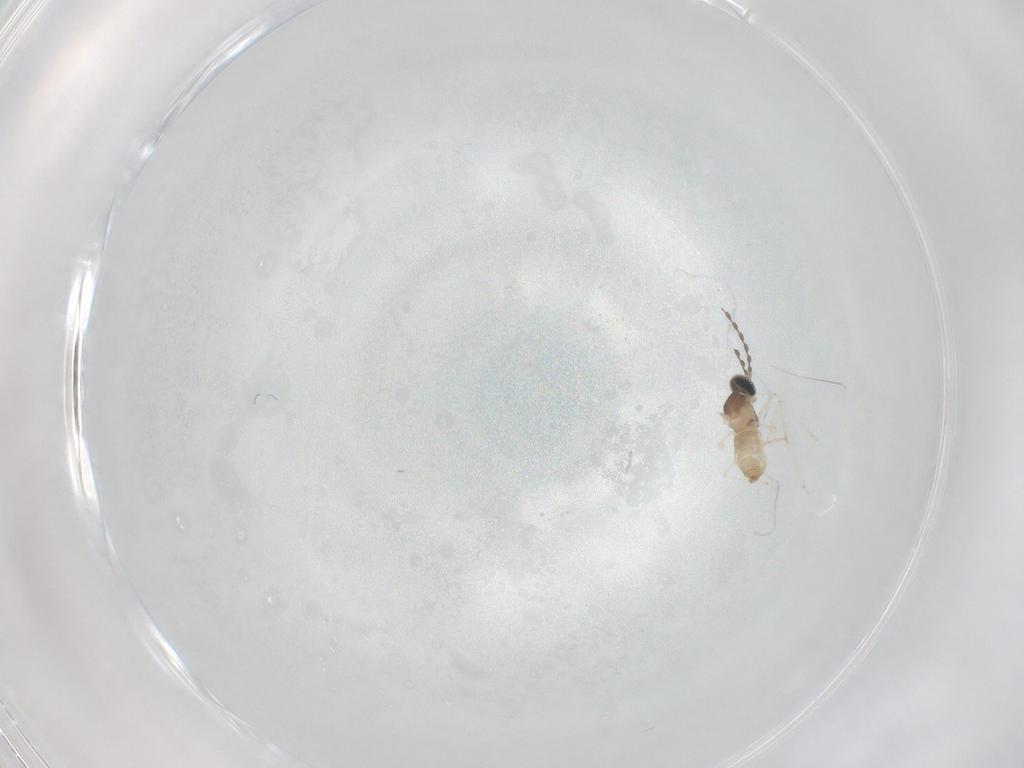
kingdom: Animalia
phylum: Arthropoda
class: Insecta
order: Diptera
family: Cecidomyiidae
